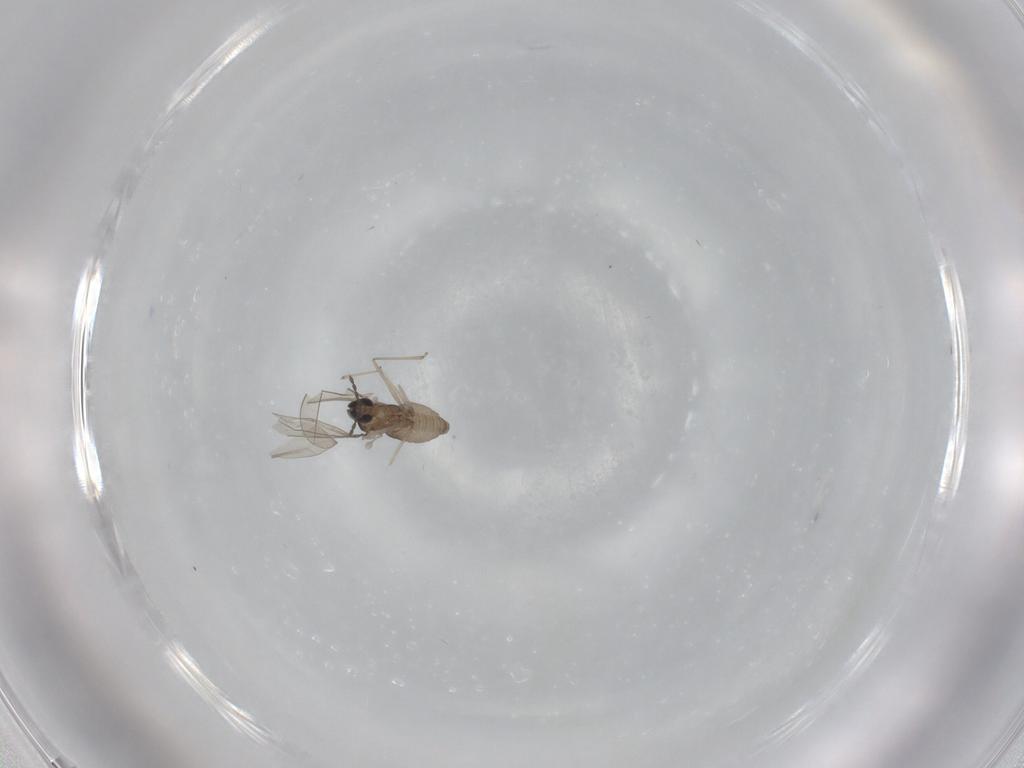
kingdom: Animalia
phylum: Arthropoda
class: Insecta
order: Diptera
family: Cecidomyiidae
